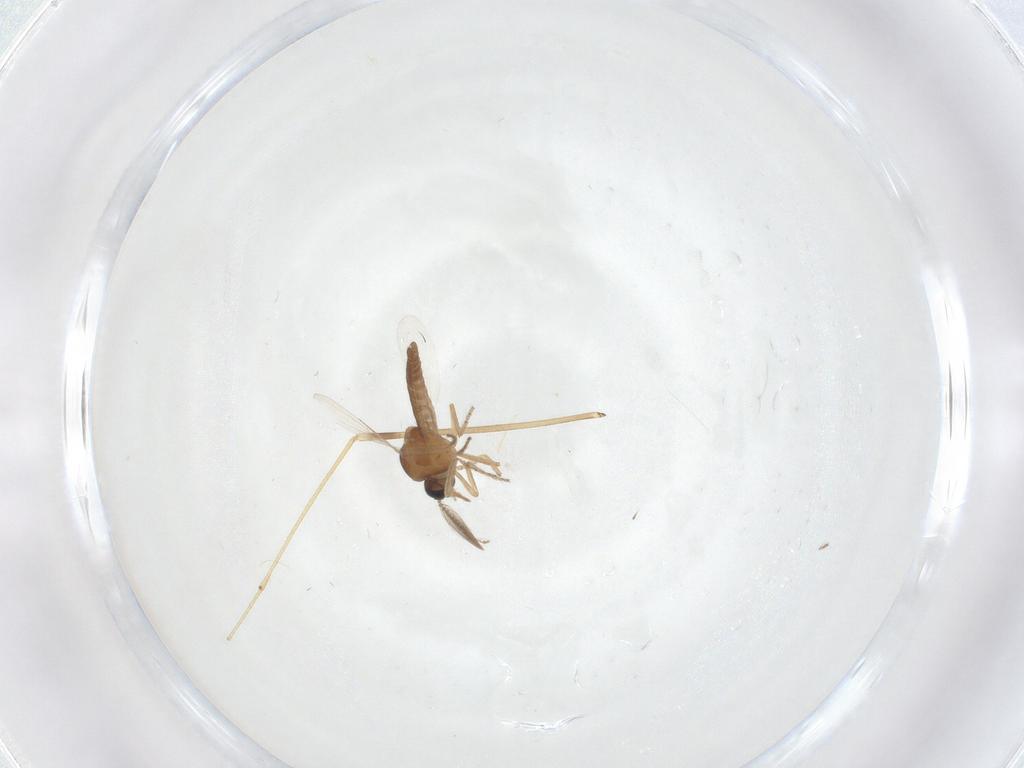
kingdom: Animalia
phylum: Arthropoda
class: Insecta
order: Diptera
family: Limoniidae
